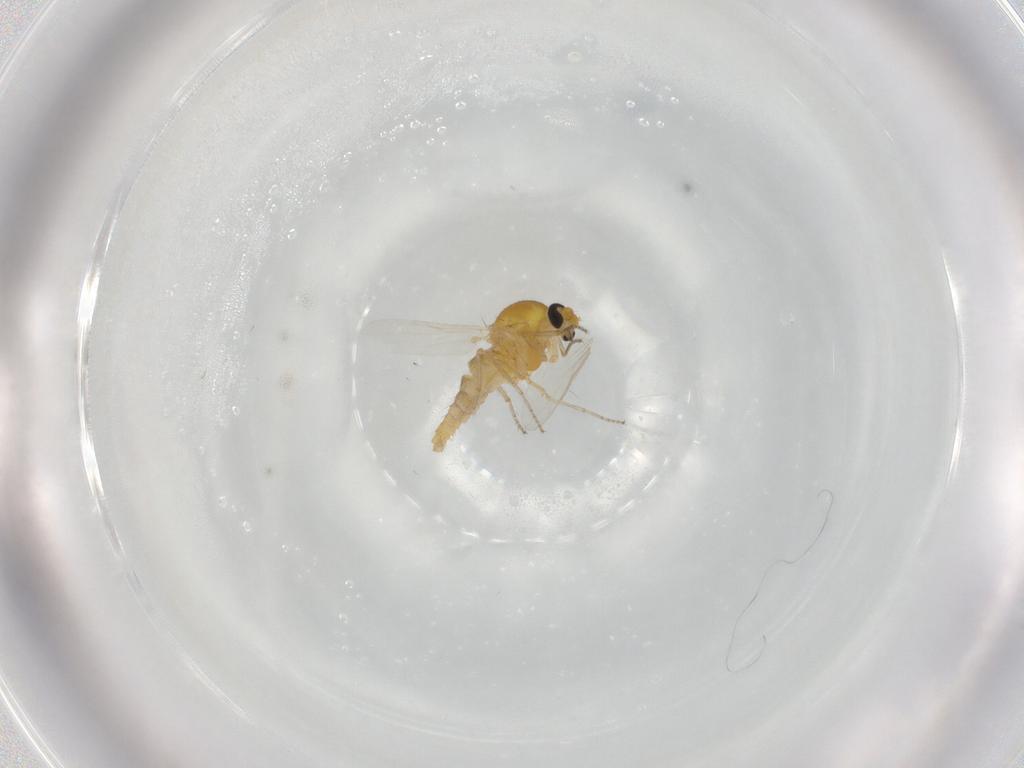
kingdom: Animalia
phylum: Arthropoda
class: Insecta
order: Diptera
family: Ceratopogonidae
